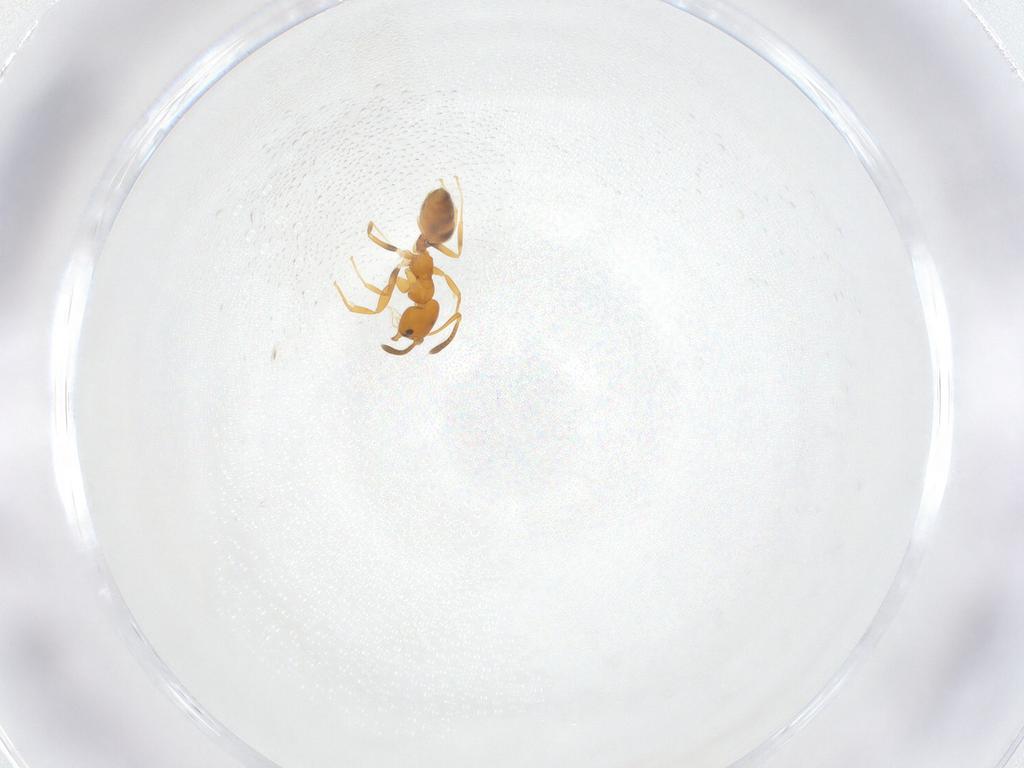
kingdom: Animalia
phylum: Arthropoda
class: Insecta
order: Hymenoptera
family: Formicidae
